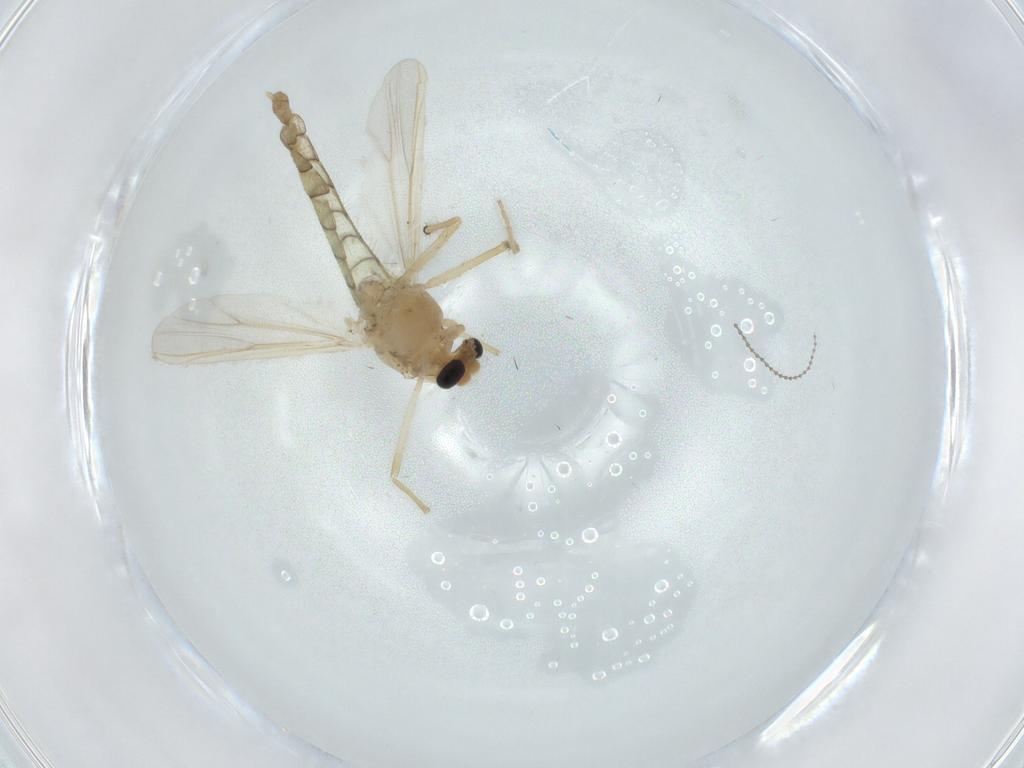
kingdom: Animalia
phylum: Arthropoda
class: Insecta
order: Diptera
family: Chironomidae
